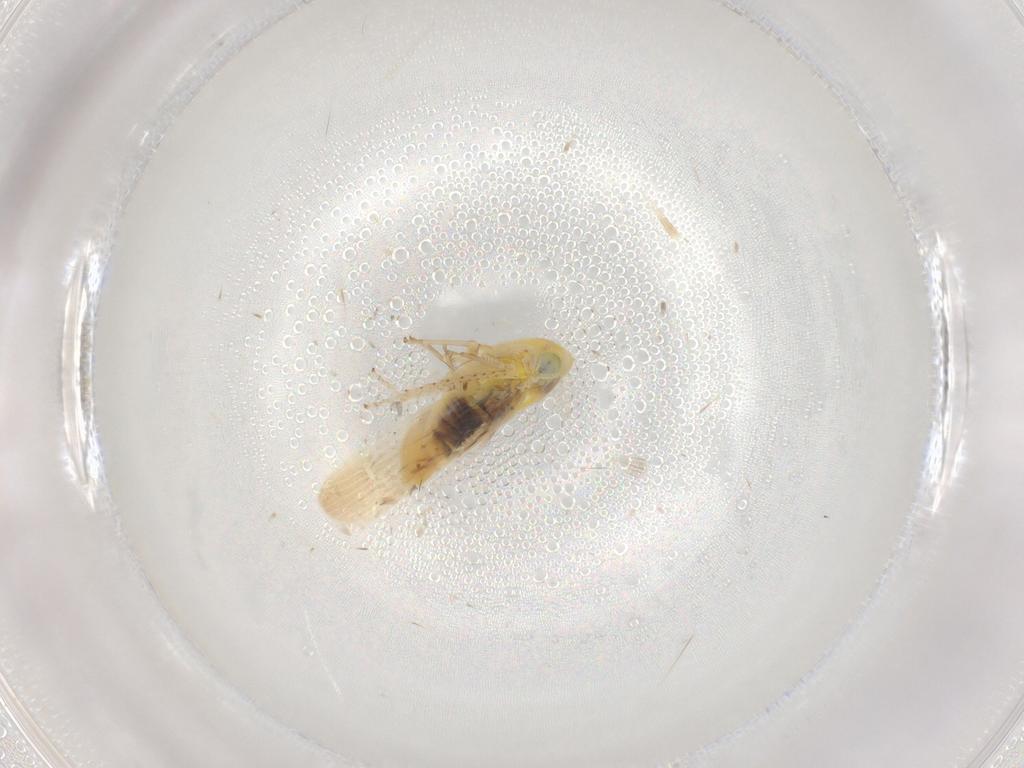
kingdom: Animalia
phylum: Arthropoda
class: Insecta
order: Hemiptera
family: Cicadellidae
